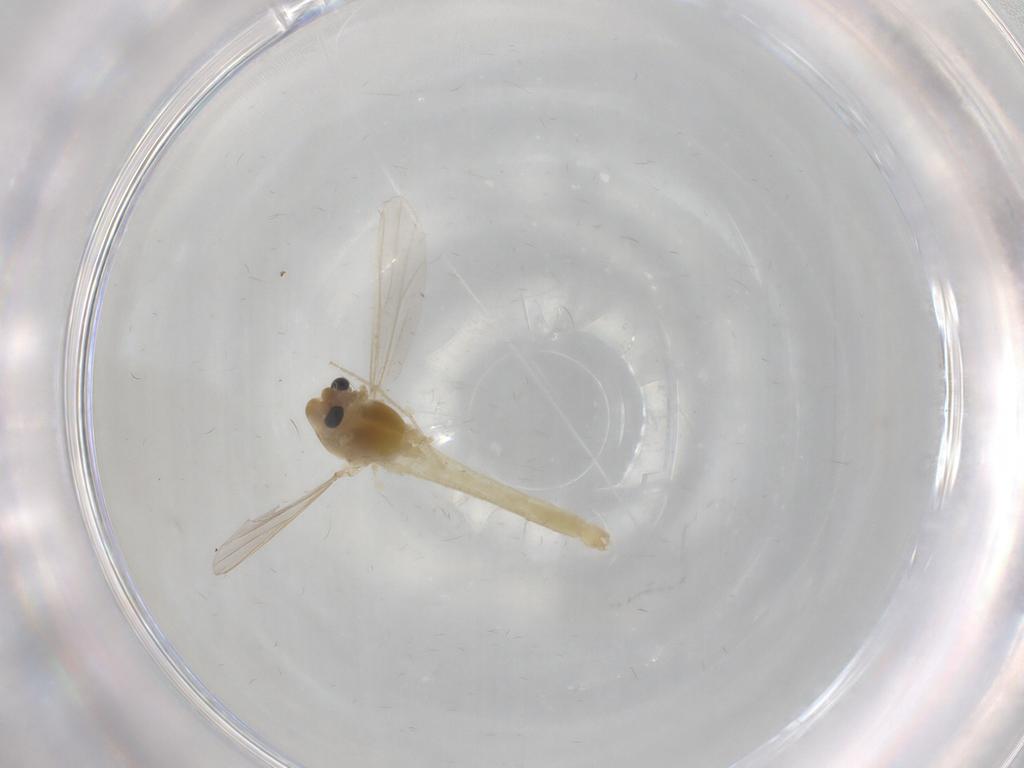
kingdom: Animalia
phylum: Arthropoda
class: Insecta
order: Diptera
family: Chironomidae
